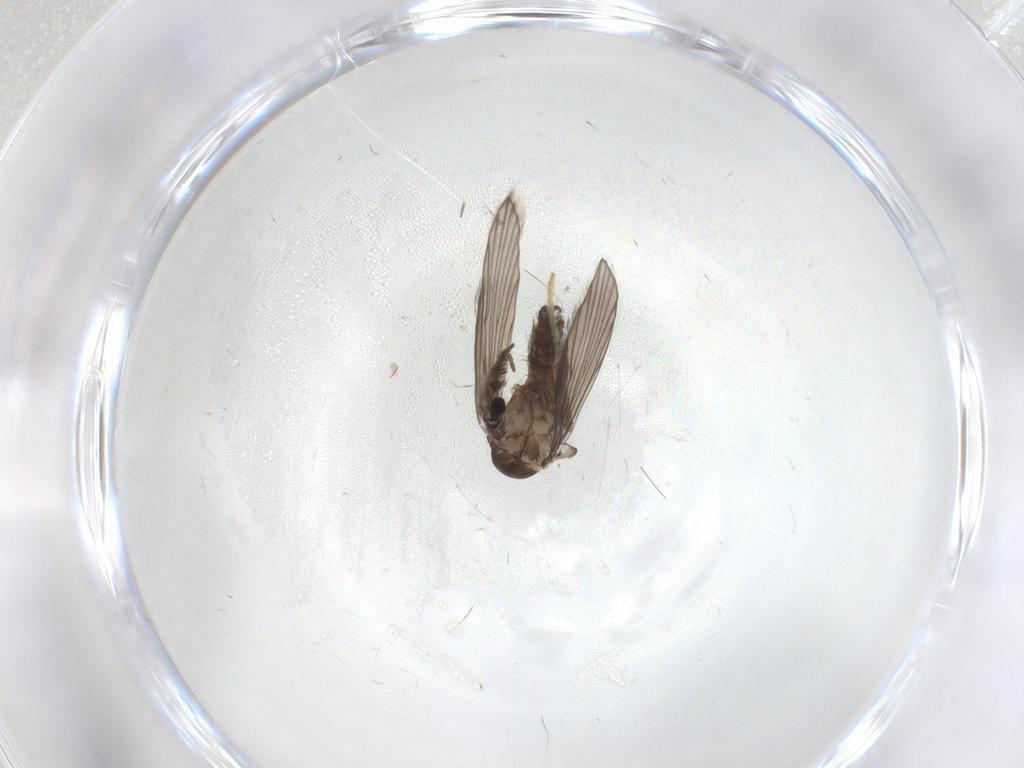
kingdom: Animalia
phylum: Arthropoda
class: Insecta
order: Diptera
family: Psychodidae
